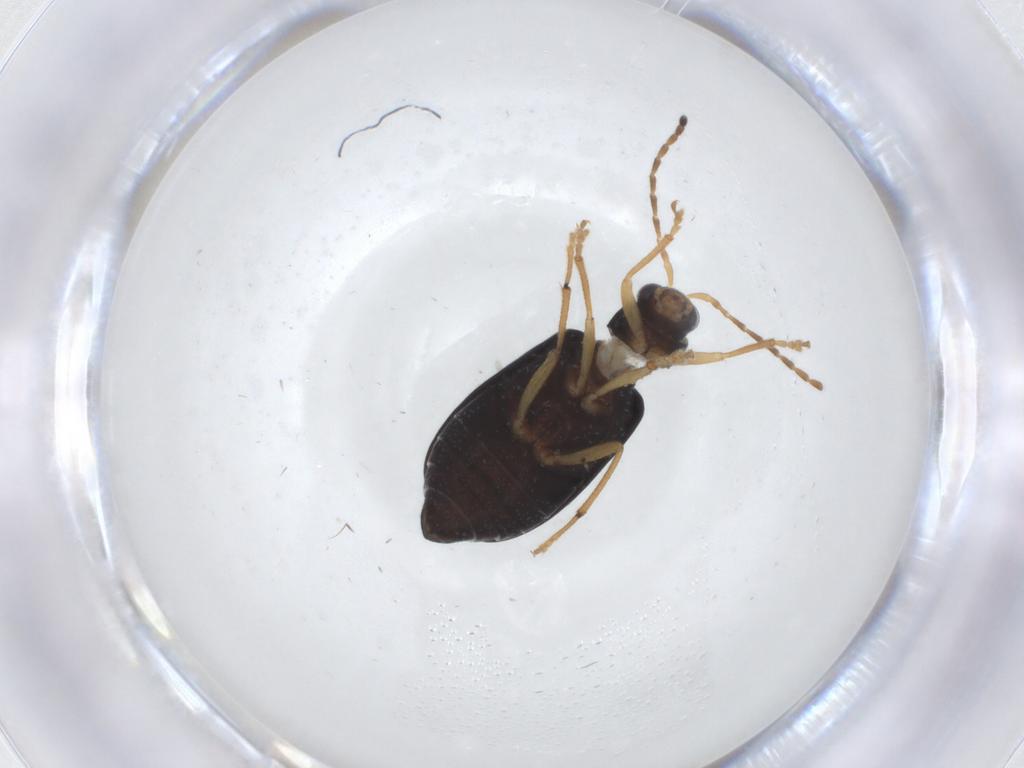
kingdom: Animalia
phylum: Arthropoda
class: Insecta
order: Coleoptera
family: Chrysomelidae
